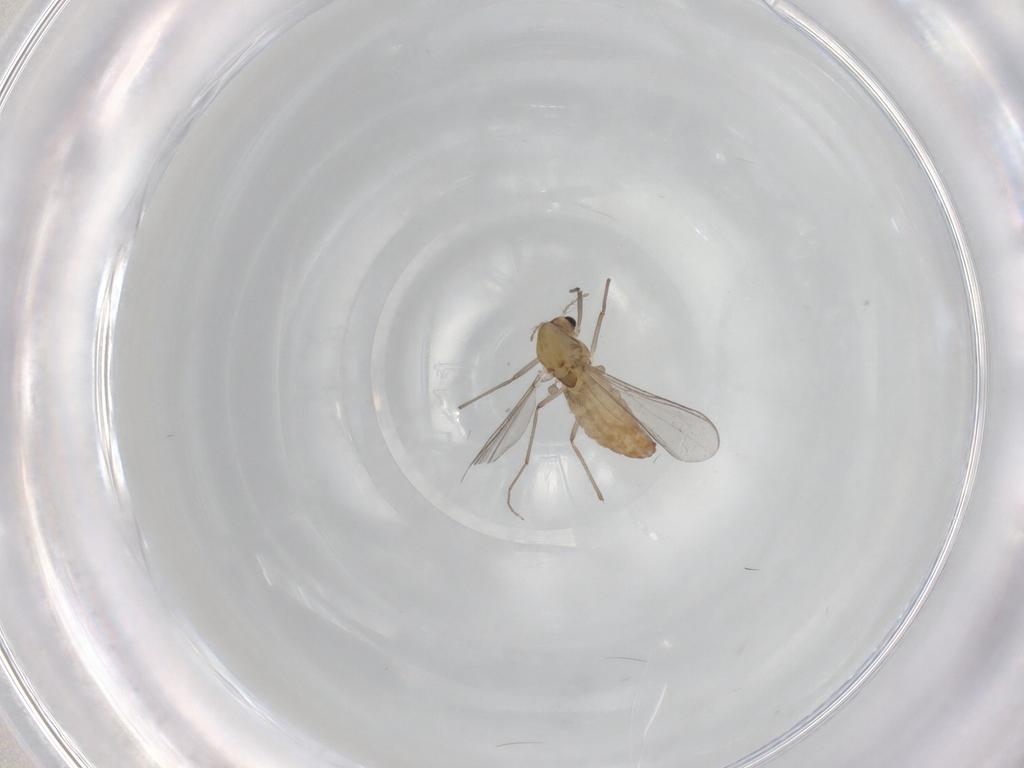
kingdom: Animalia
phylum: Arthropoda
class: Insecta
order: Diptera
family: Chironomidae
